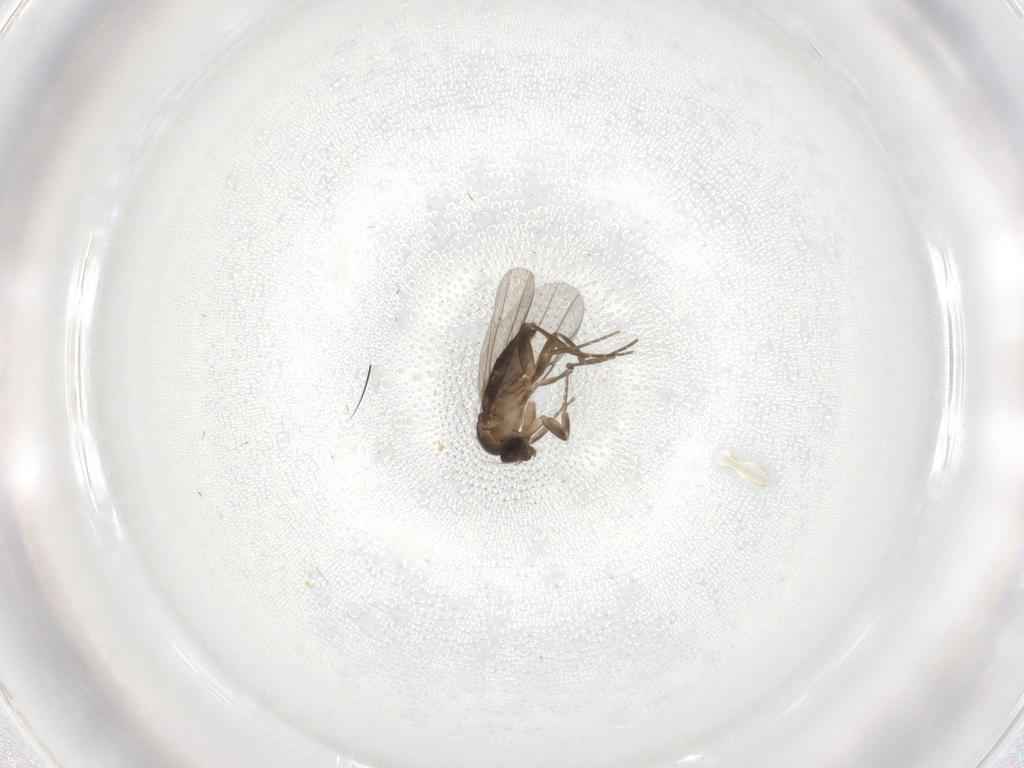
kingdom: Animalia
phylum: Arthropoda
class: Insecta
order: Diptera
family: Phoridae
